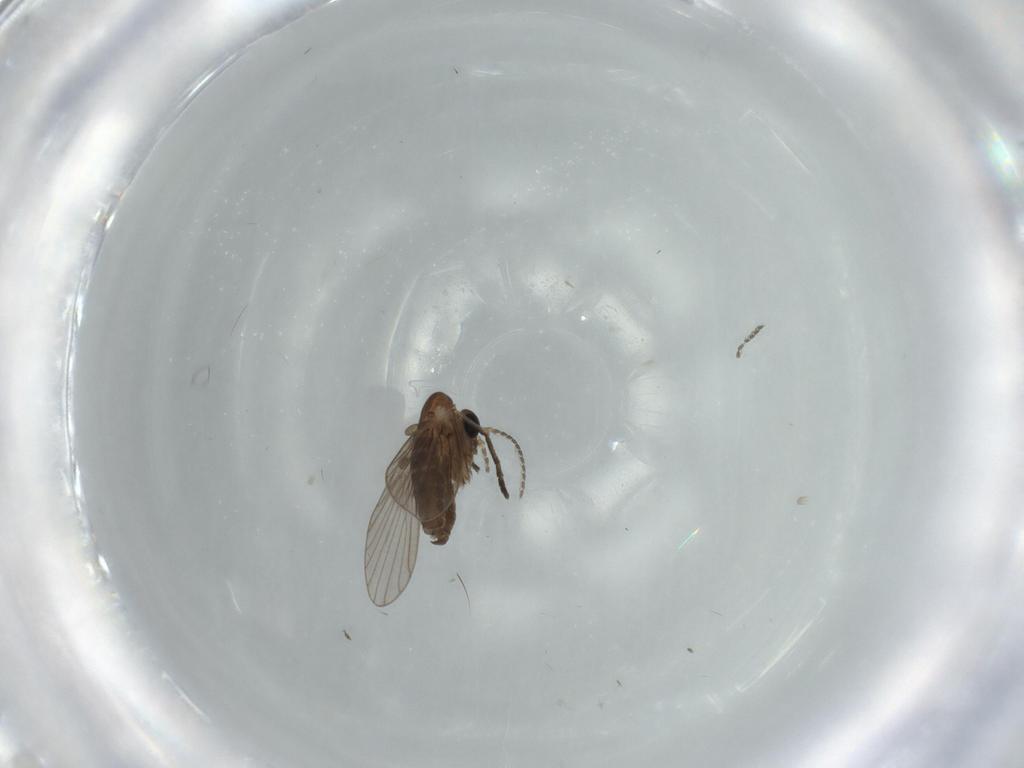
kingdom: Animalia
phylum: Arthropoda
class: Insecta
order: Diptera
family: Psychodidae
